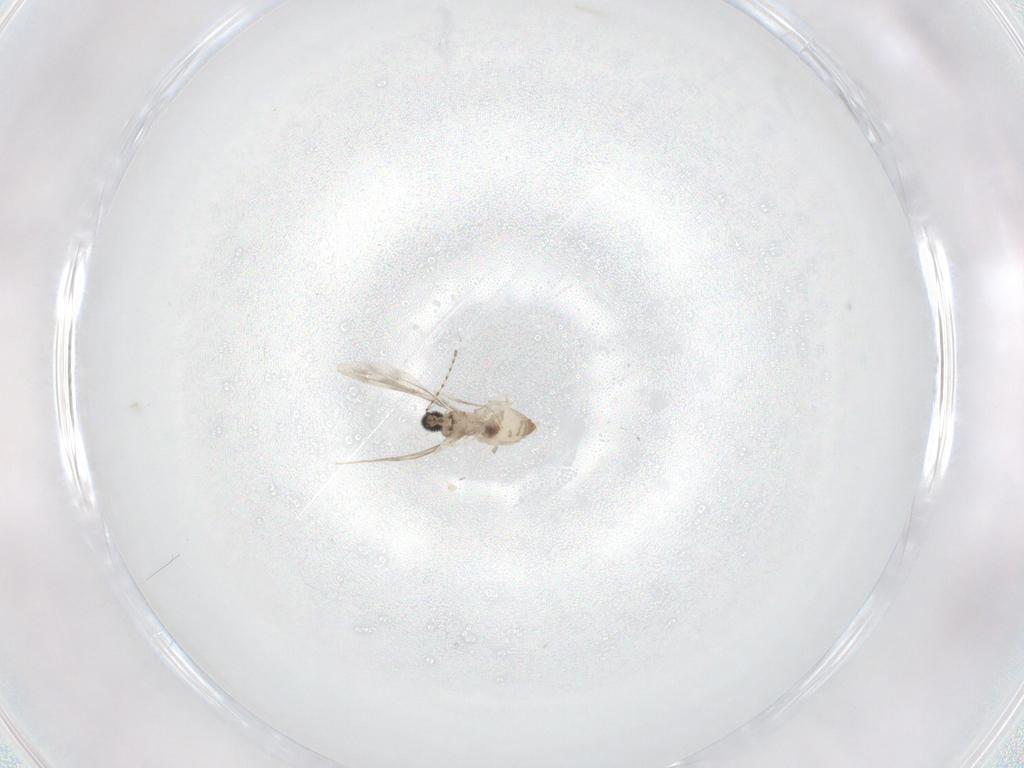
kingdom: Animalia
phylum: Arthropoda
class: Insecta
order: Diptera
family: Cecidomyiidae
